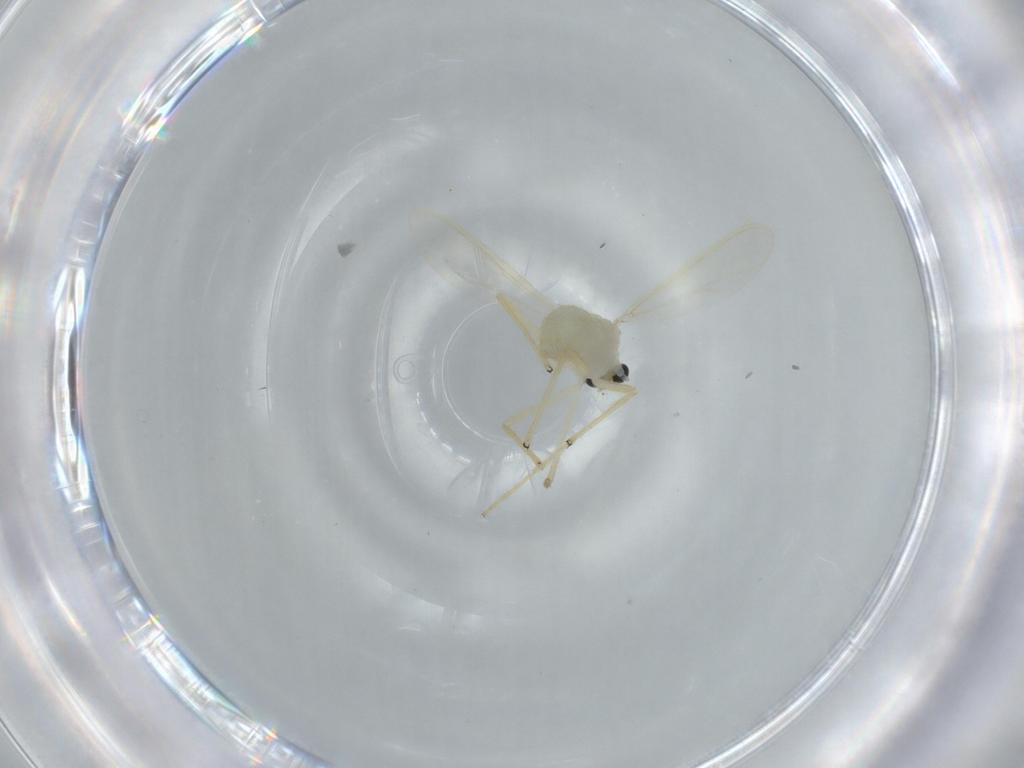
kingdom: Animalia
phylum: Arthropoda
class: Insecta
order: Diptera
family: Chironomidae
